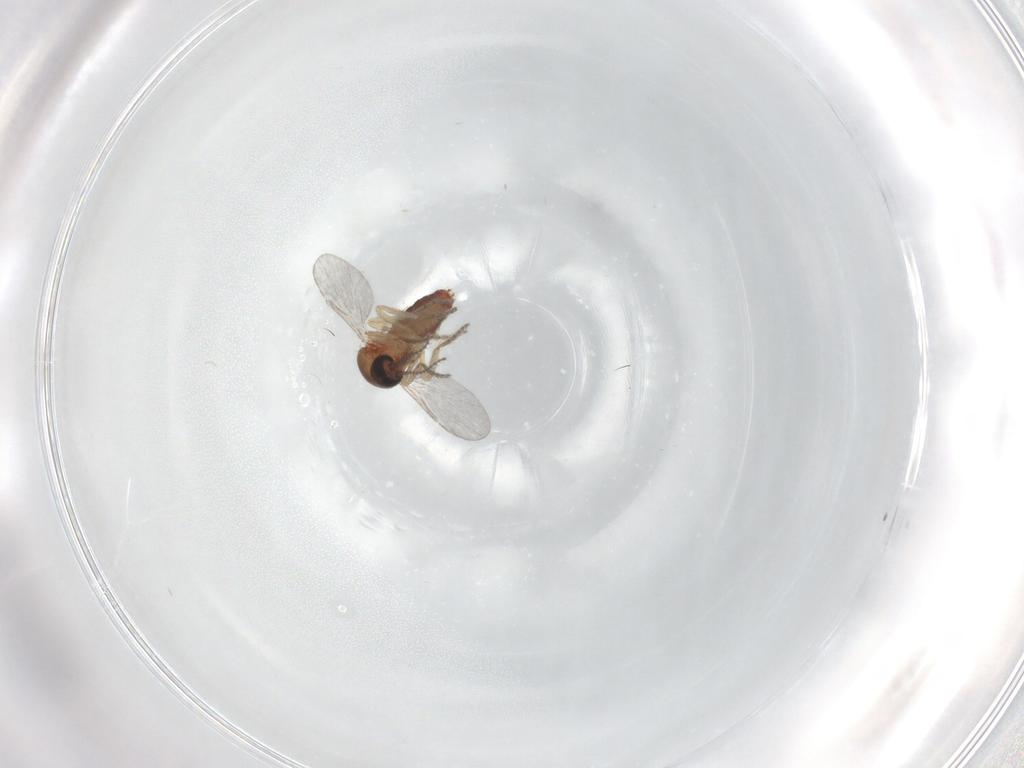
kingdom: Animalia
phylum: Arthropoda
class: Insecta
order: Diptera
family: Ceratopogonidae
